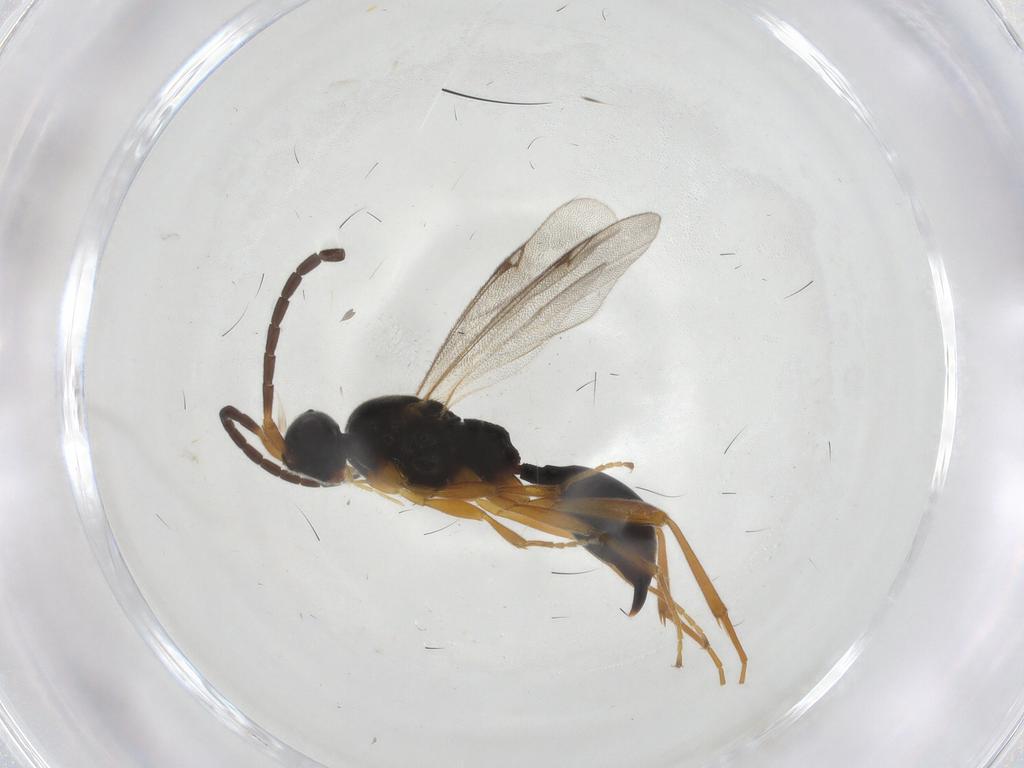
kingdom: Animalia
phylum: Arthropoda
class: Insecta
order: Hymenoptera
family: Proctotrupidae
